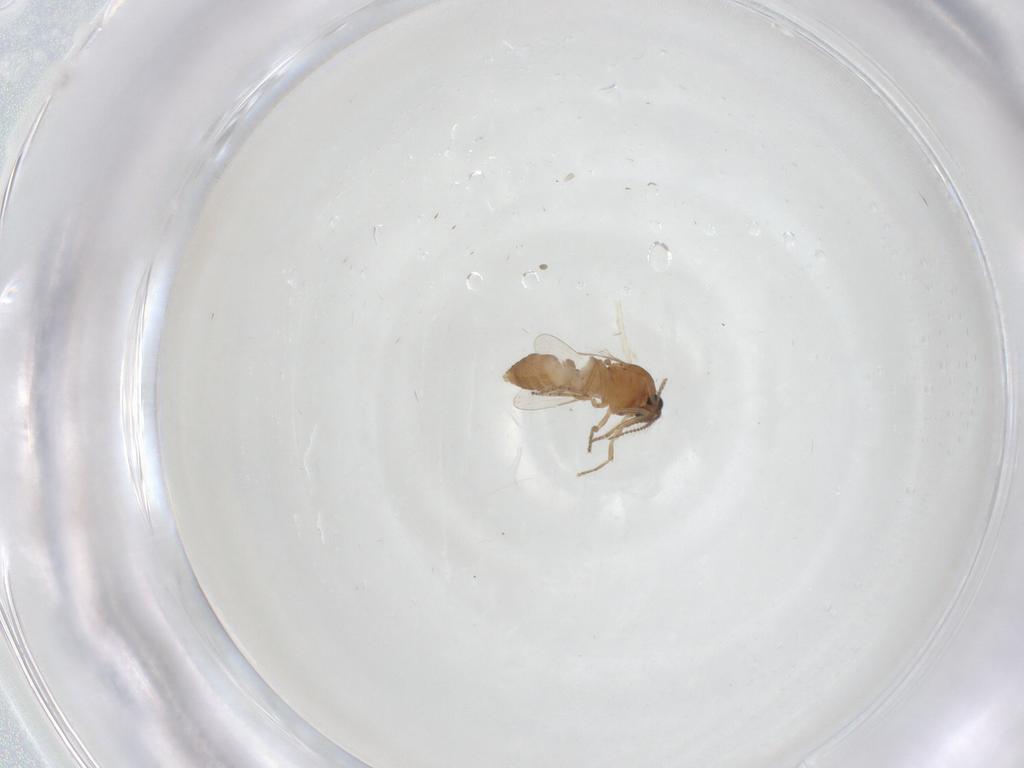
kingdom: Animalia
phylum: Arthropoda
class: Insecta
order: Diptera
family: Ceratopogonidae
